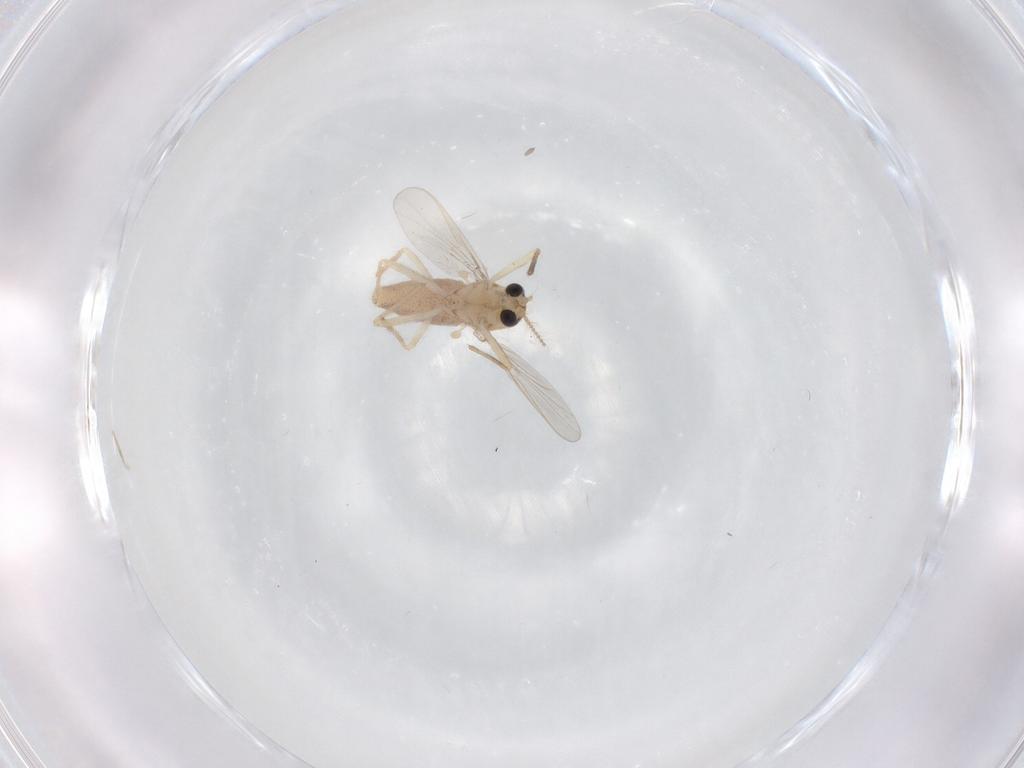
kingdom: Animalia
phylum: Arthropoda
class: Insecta
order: Diptera
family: Chironomidae
